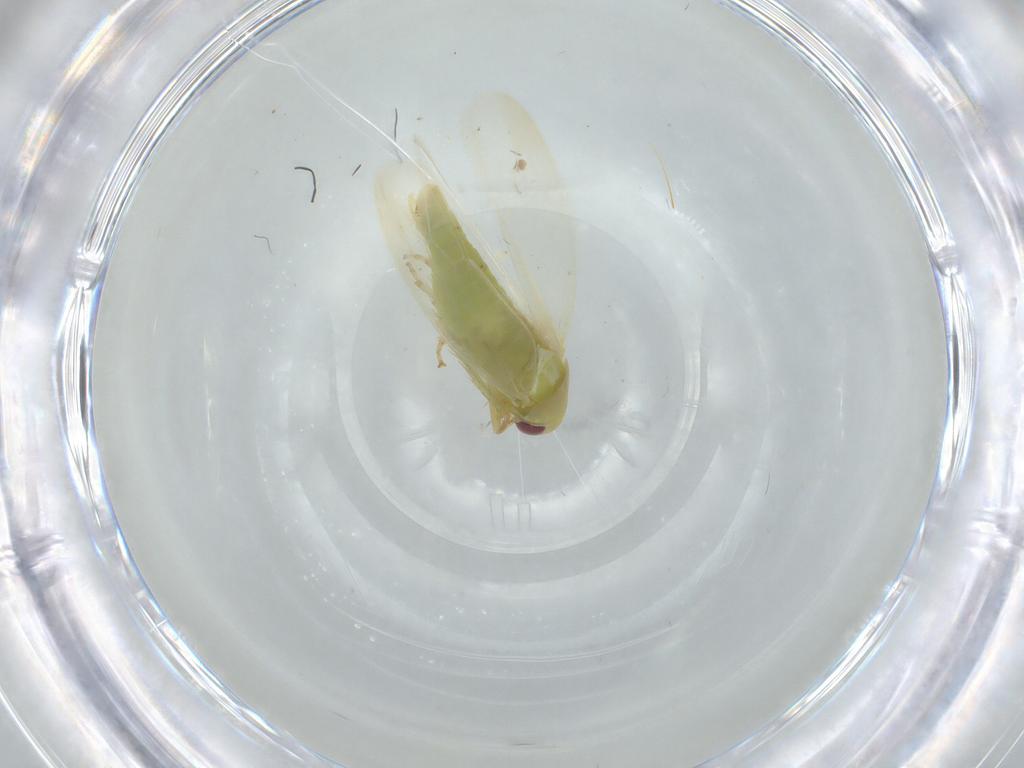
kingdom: Animalia
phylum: Arthropoda
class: Insecta
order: Hemiptera
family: Cicadellidae
